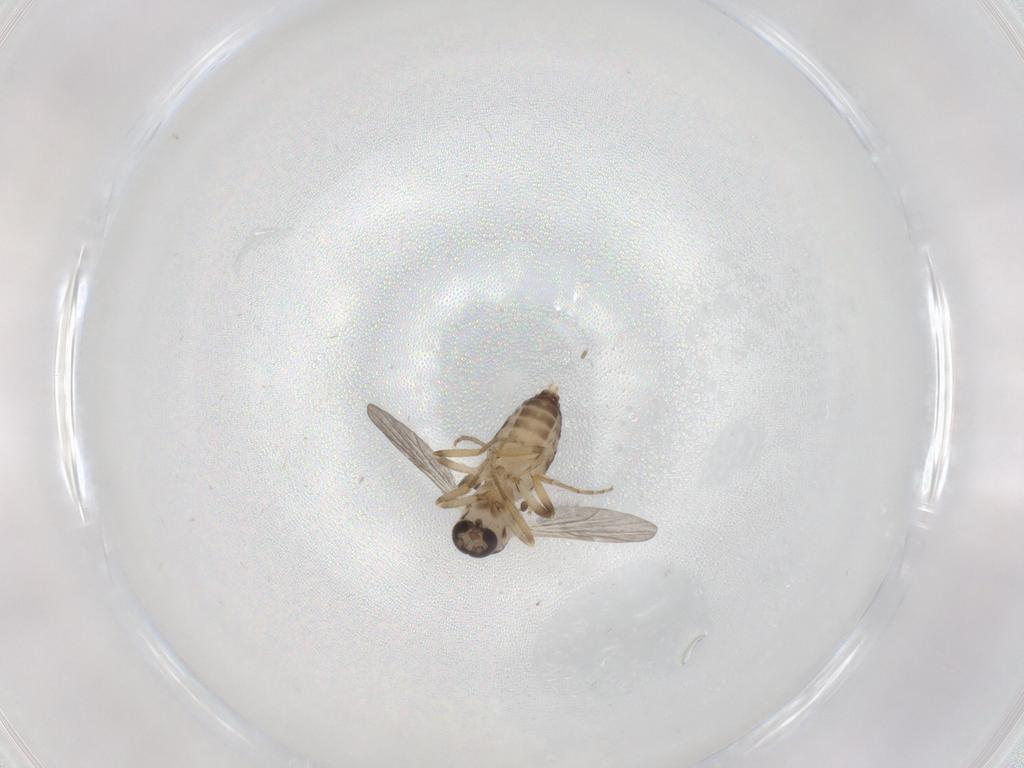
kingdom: Animalia
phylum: Arthropoda
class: Insecta
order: Diptera
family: Ceratopogonidae
